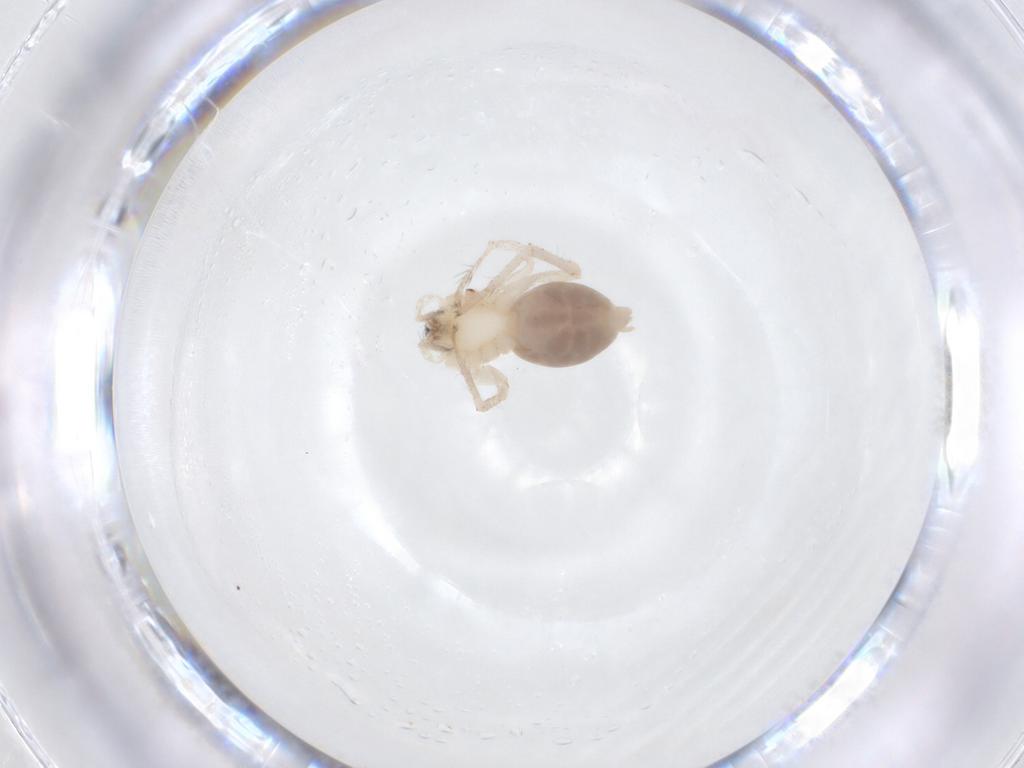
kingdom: Animalia
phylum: Arthropoda
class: Arachnida
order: Araneae
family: Anyphaenidae
